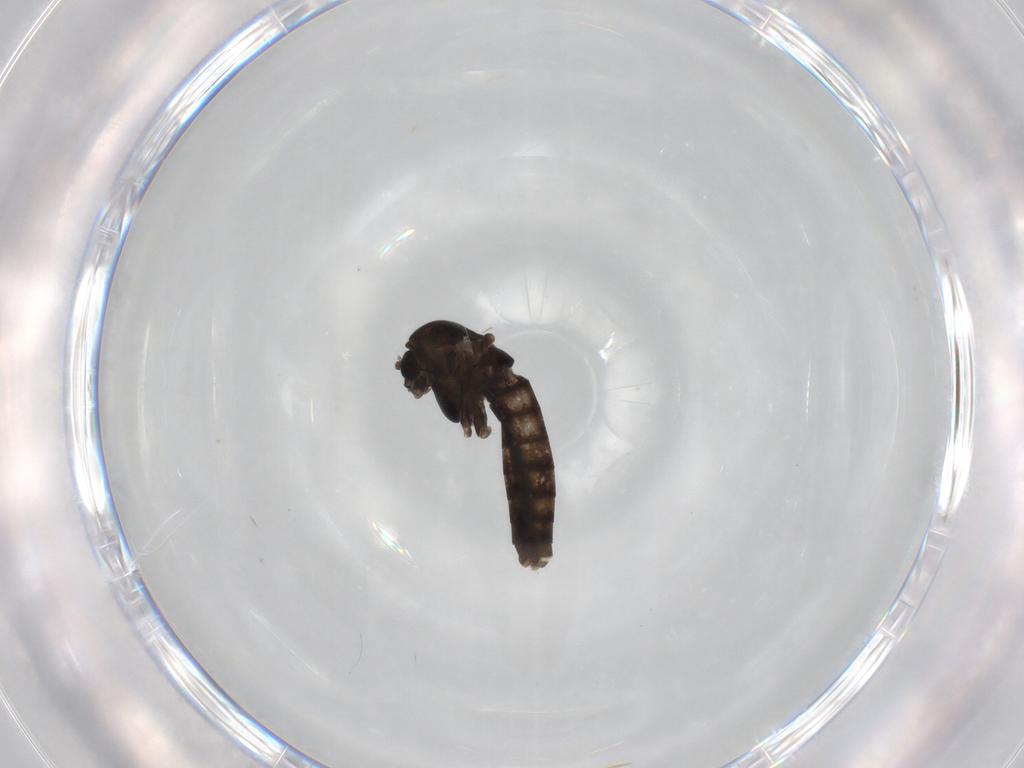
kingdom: Animalia
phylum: Arthropoda
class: Insecta
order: Diptera
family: Chironomidae
